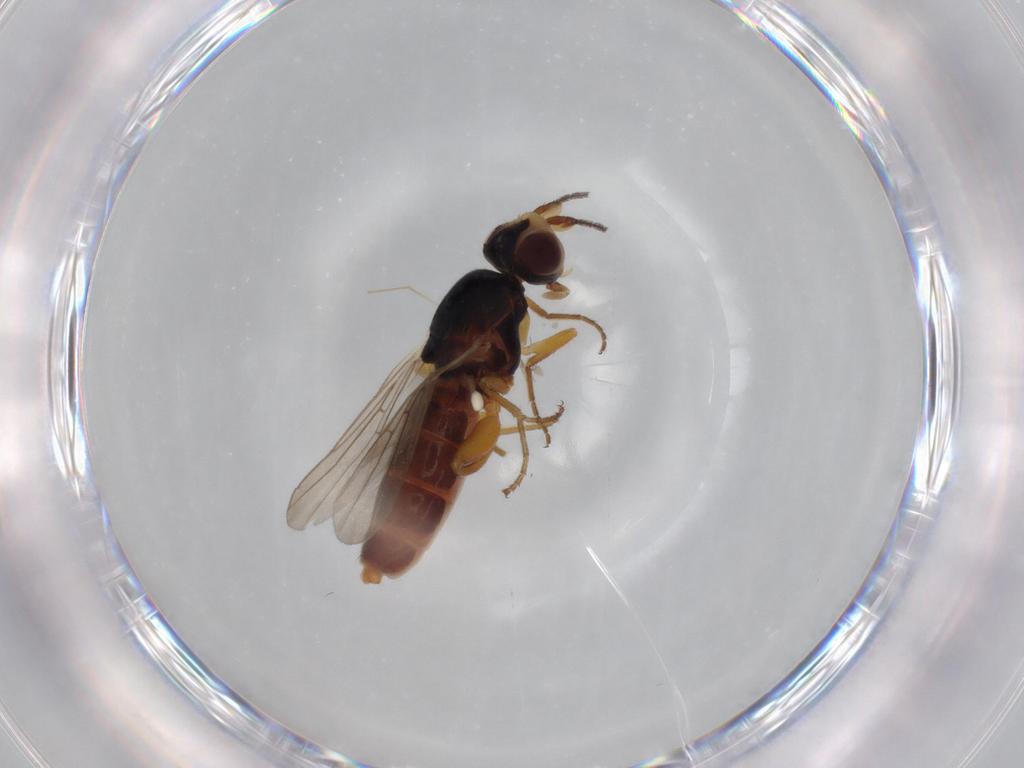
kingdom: Animalia
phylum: Arthropoda
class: Insecta
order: Diptera
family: Chloropidae
